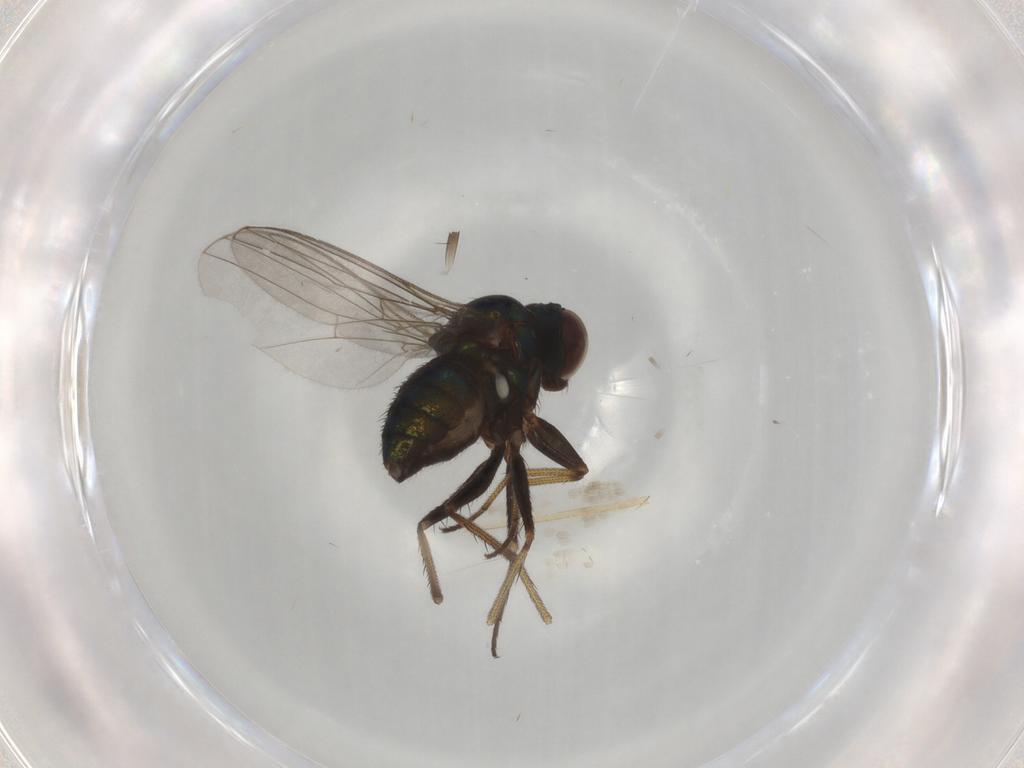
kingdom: Animalia
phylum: Arthropoda
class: Insecta
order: Diptera
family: Dolichopodidae
